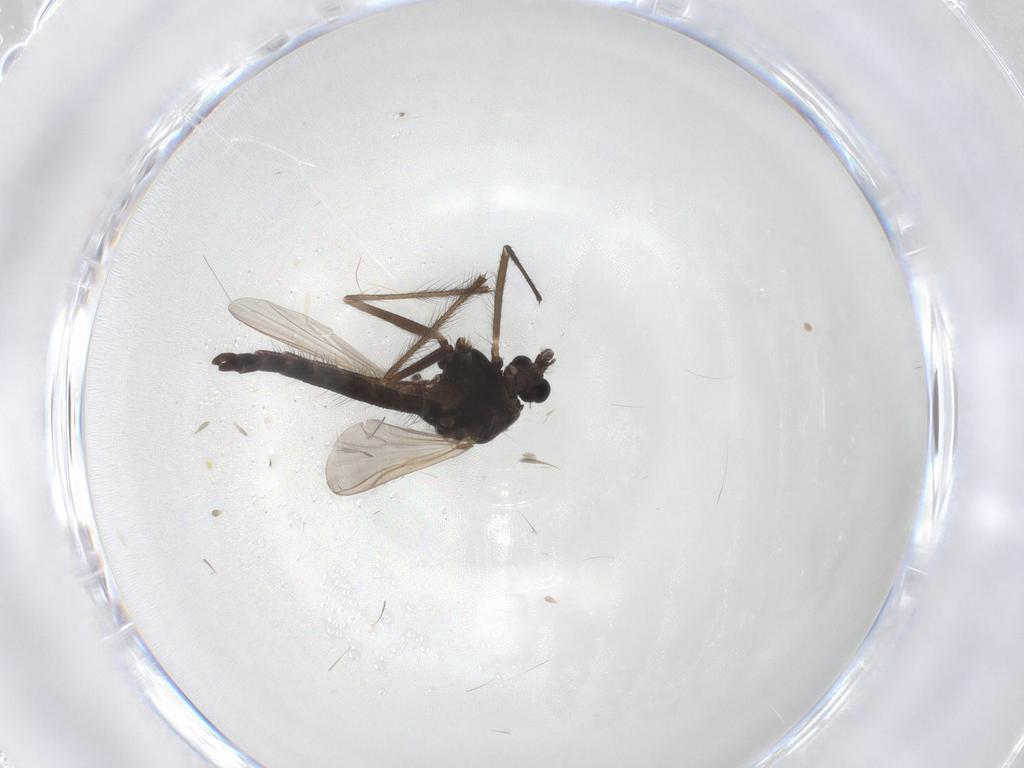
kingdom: Animalia
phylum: Arthropoda
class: Insecta
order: Diptera
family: Chironomidae
